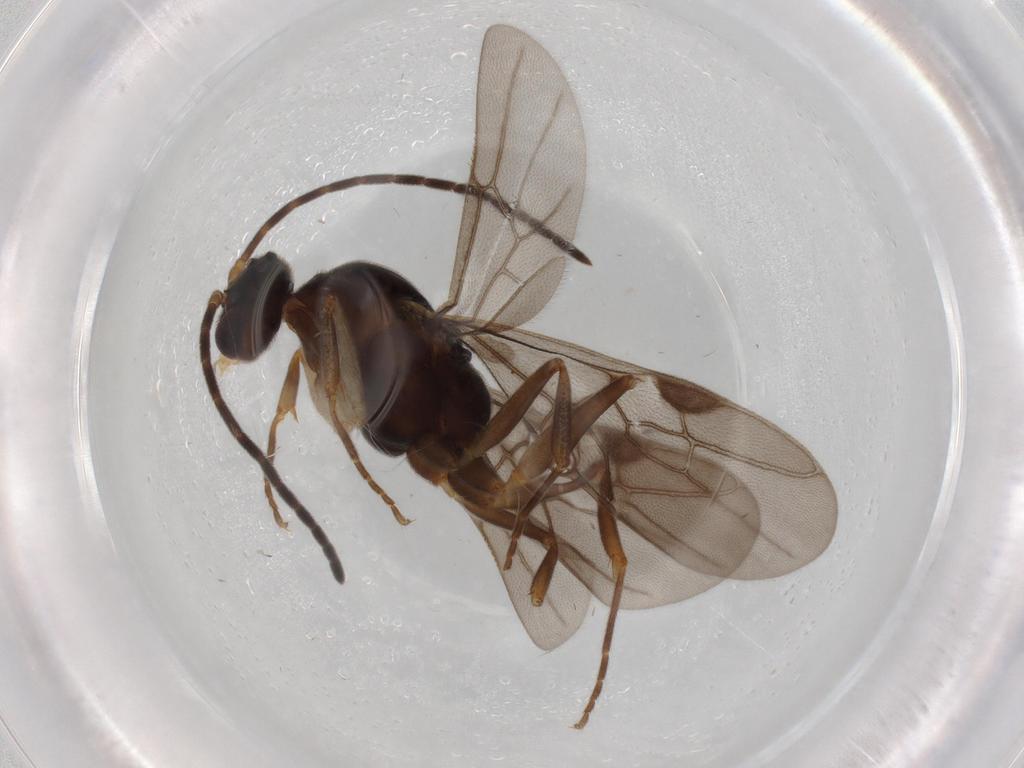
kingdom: Animalia
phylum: Arthropoda
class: Insecta
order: Hymenoptera
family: Formicidae
